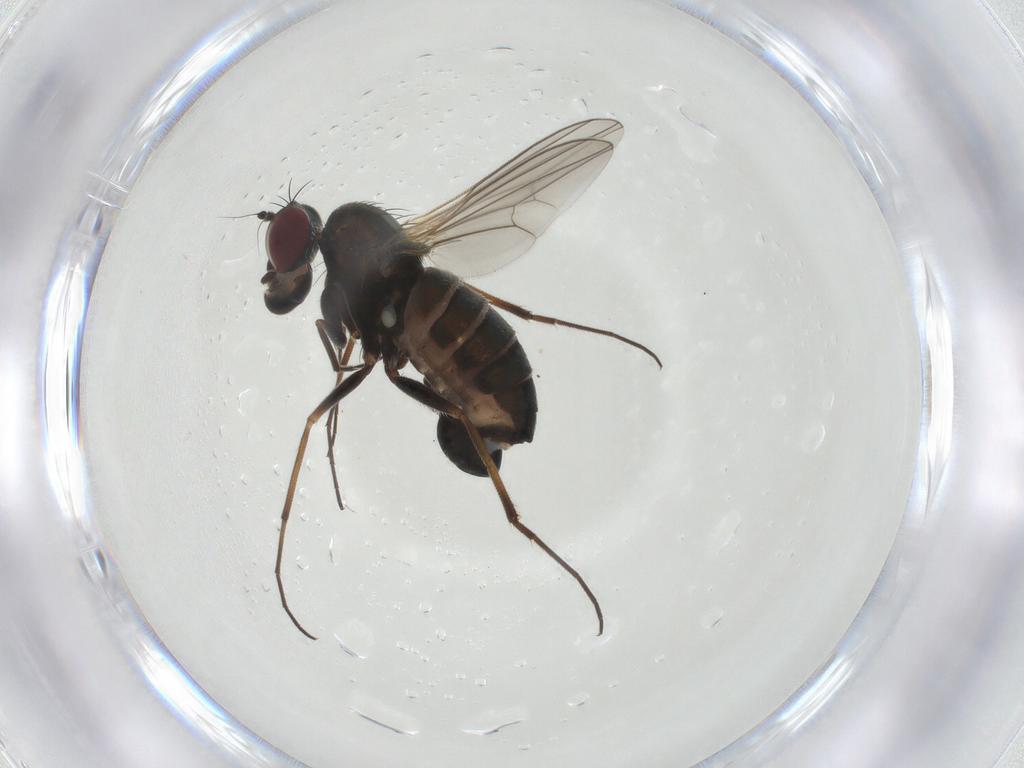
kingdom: Animalia
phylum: Arthropoda
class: Insecta
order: Diptera
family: Dolichopodidae
